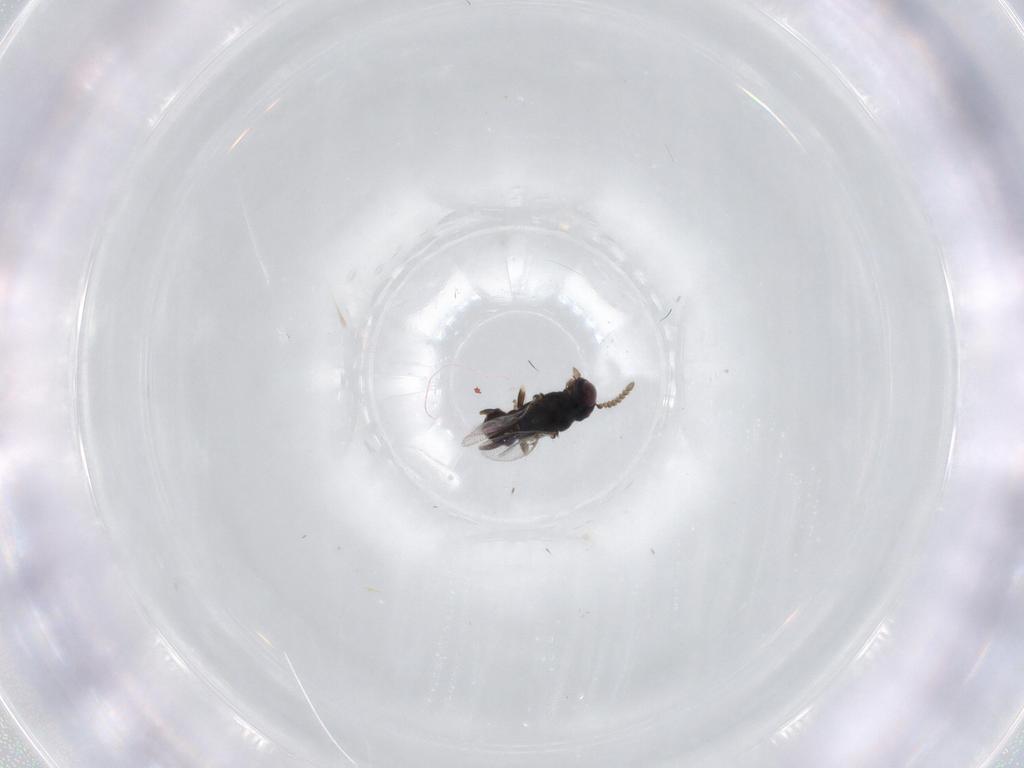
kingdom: Animalia
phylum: Arthropoda
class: Insecta
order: Hymenoptera
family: Pirenidae
